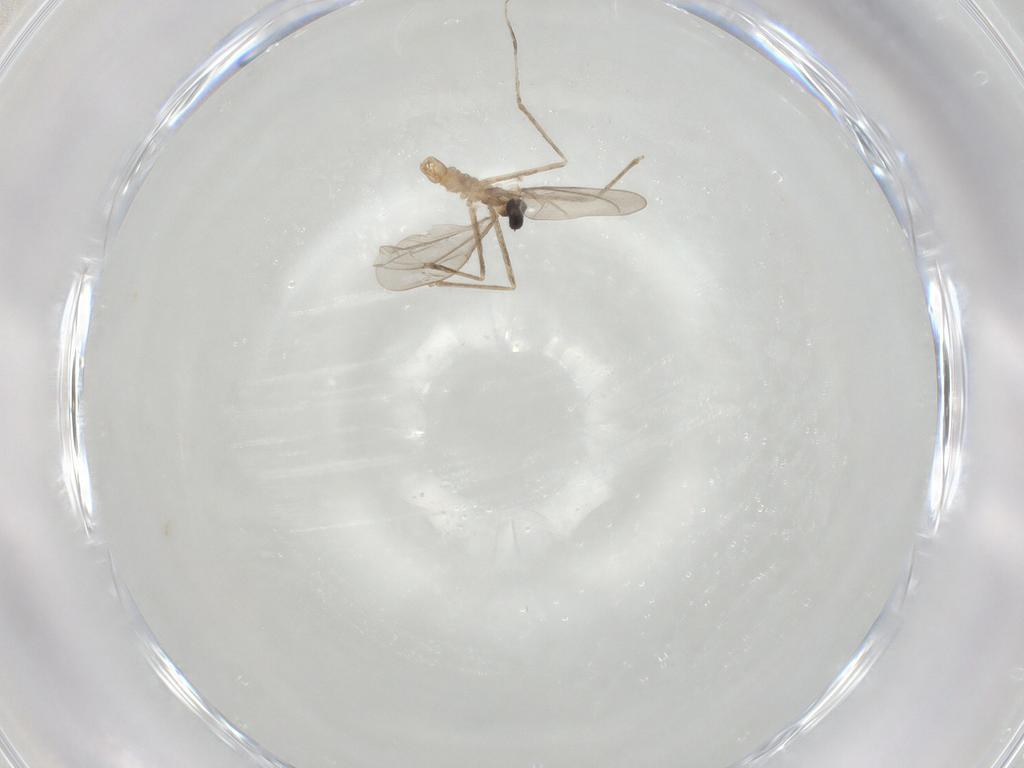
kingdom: Animalia
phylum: Arthropoda
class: Insecta
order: Diptera
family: Cecidomyiidae
